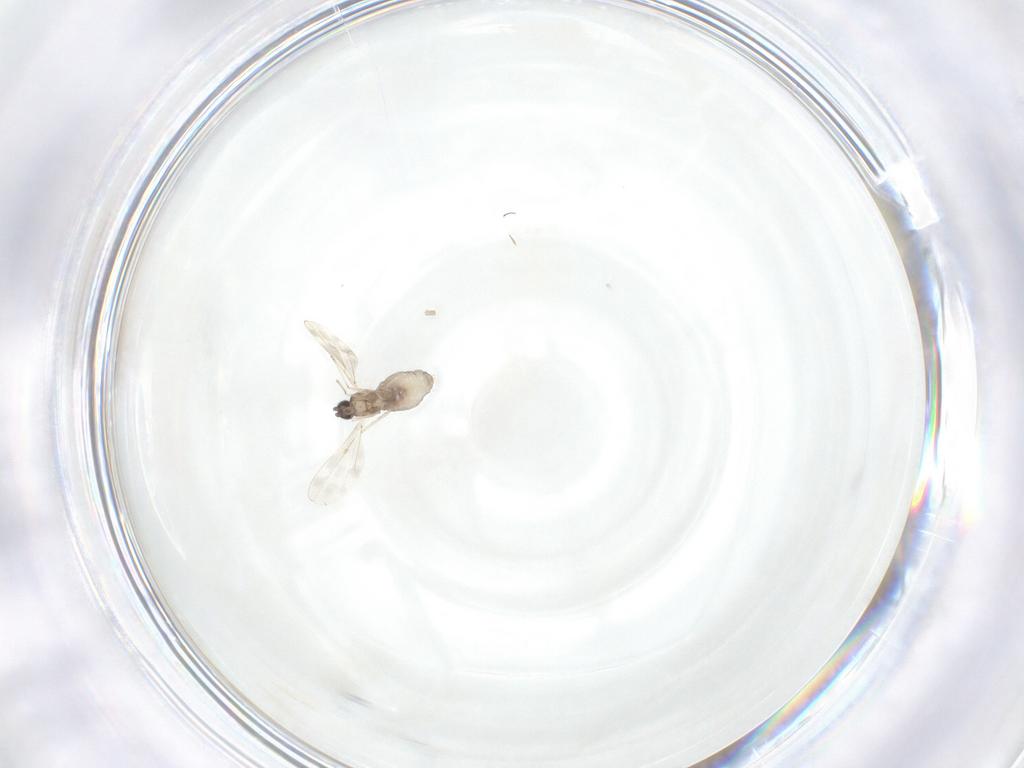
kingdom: Animalia
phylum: Arthropoda
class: Insecta
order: Diptera
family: Cecidomyiidae
